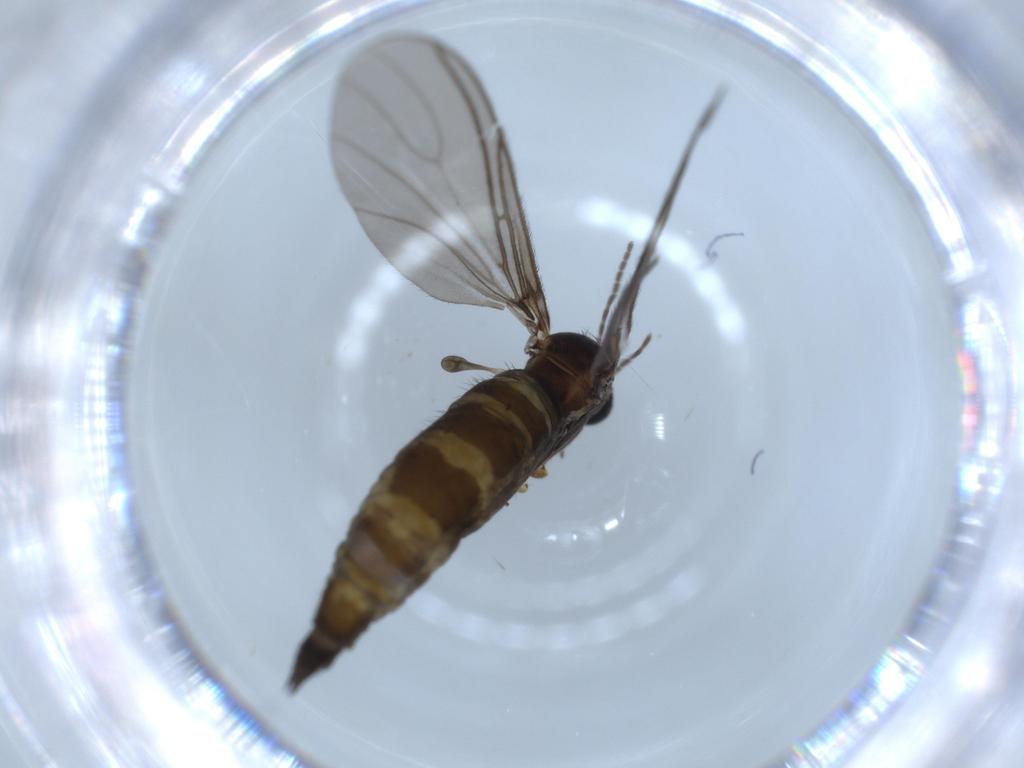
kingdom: Animalia
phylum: Arthropoda
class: Insecta
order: Diptera
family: Sciaridae
